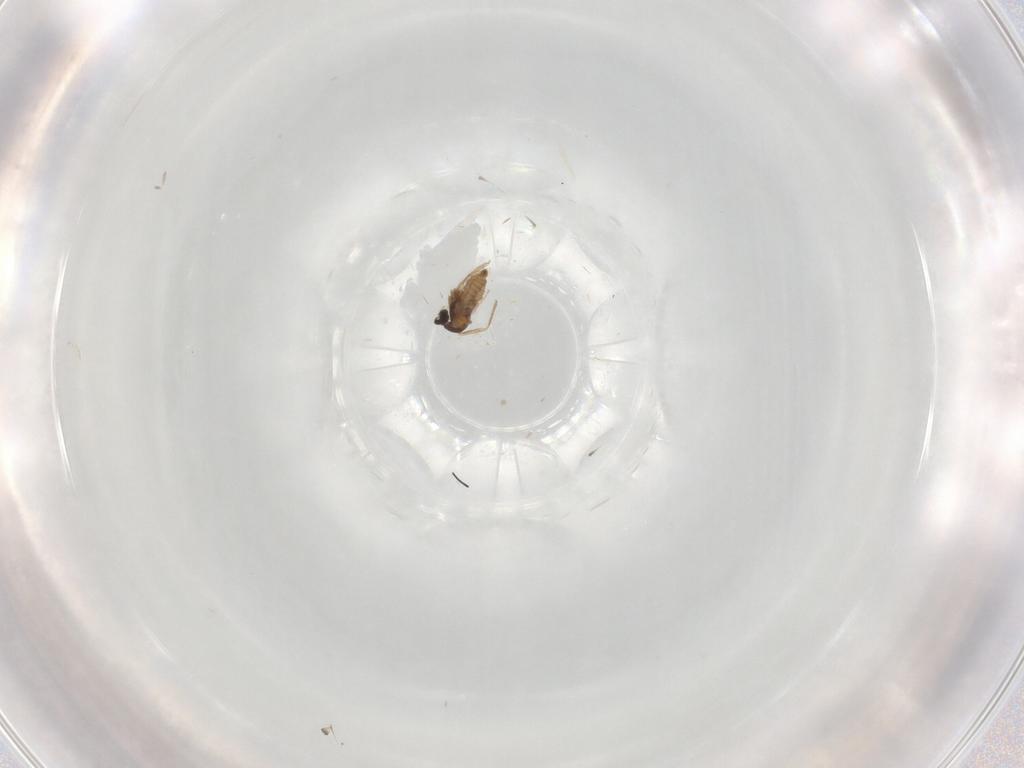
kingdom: Animalia
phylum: Arthropoda
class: Insecta
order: Diptera
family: Cecidomyiidae
